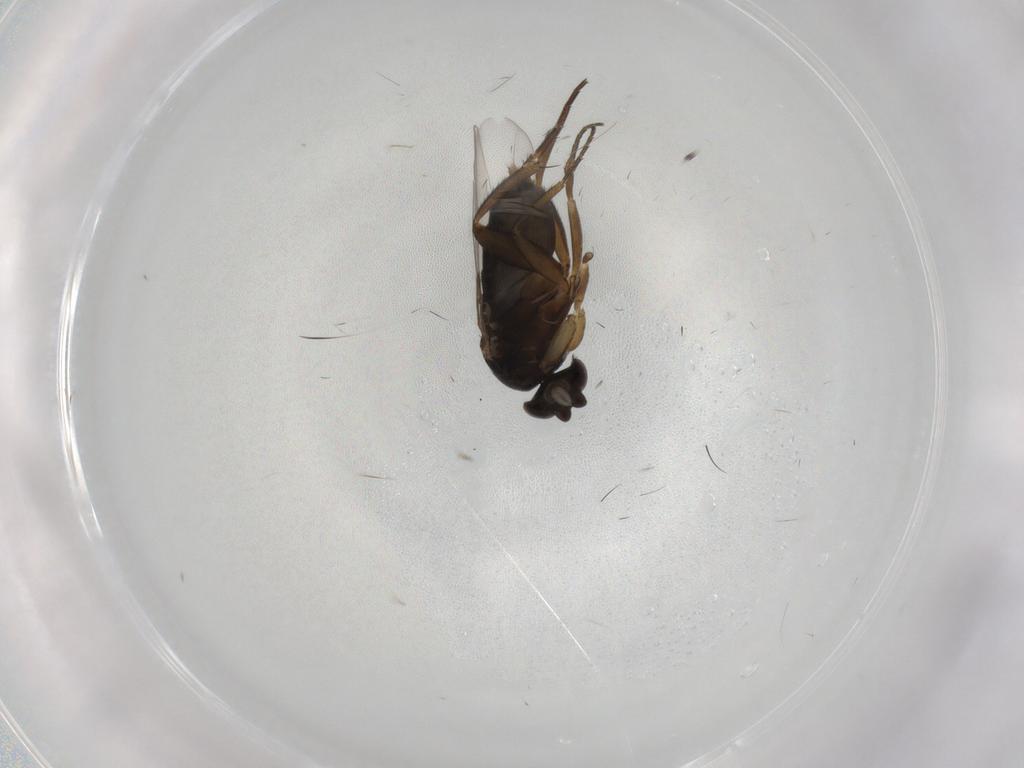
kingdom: Animalia
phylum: Arthropoda
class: Insecta
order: Diptera
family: Phoridae
